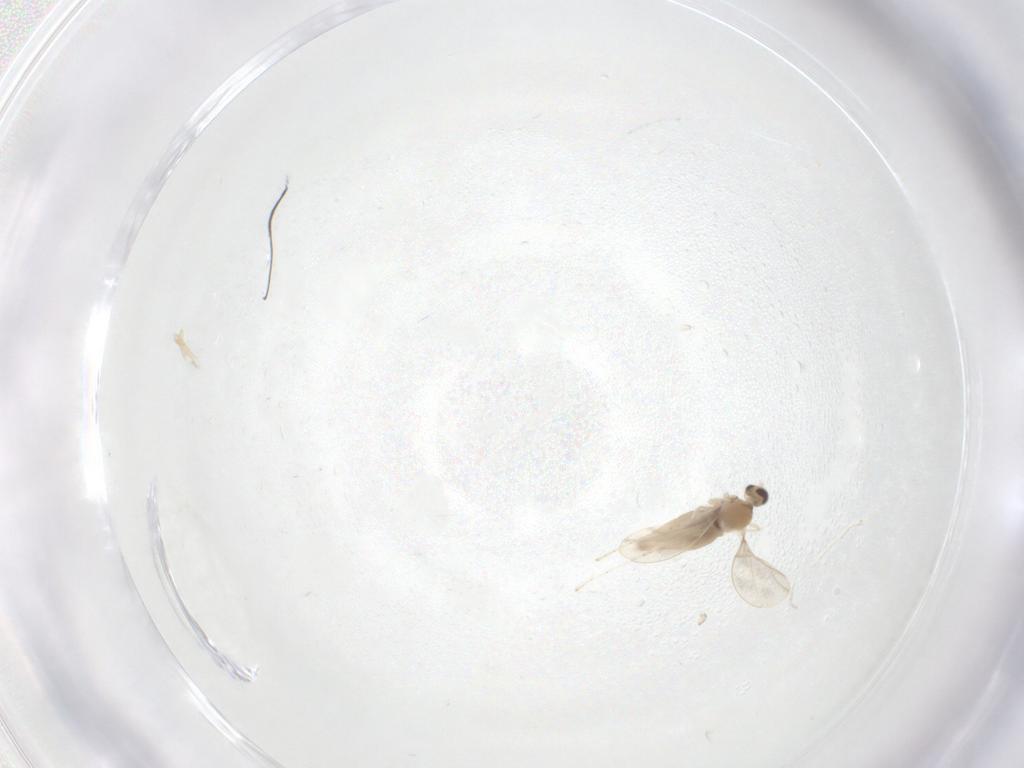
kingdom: Animalia
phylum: Arthropoda
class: Insecta
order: Diptera
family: Cecidomyiidae
